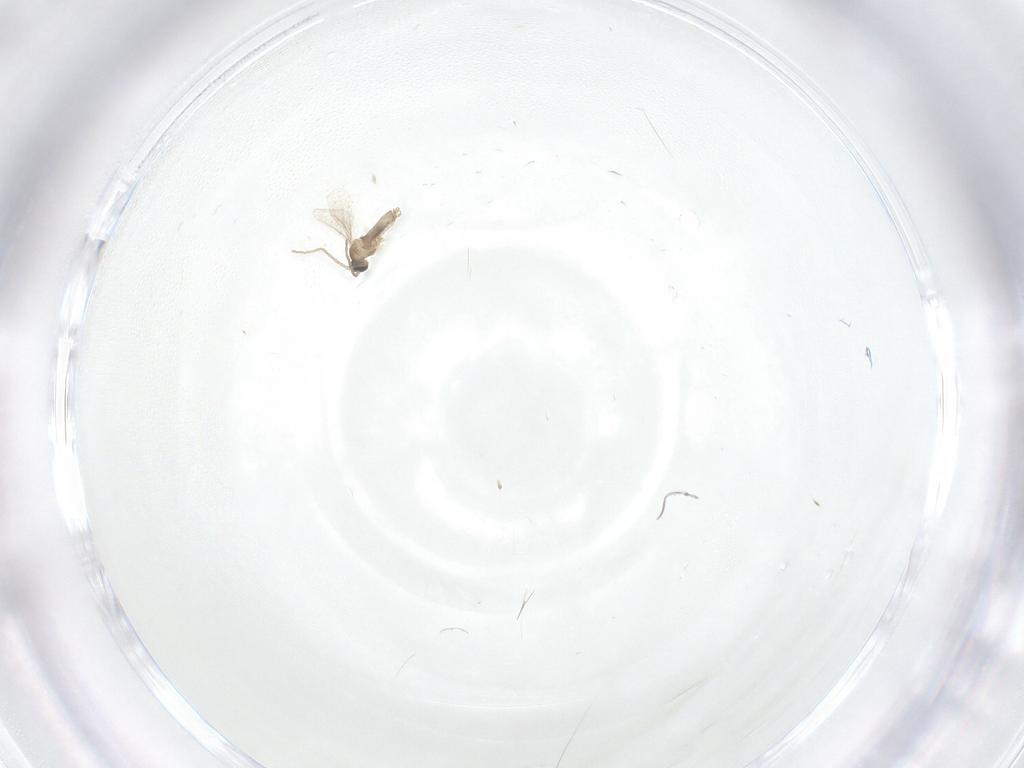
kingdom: Animalia
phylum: Arthropoda
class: Insecta
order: Diptera
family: Cecidomyiidae
